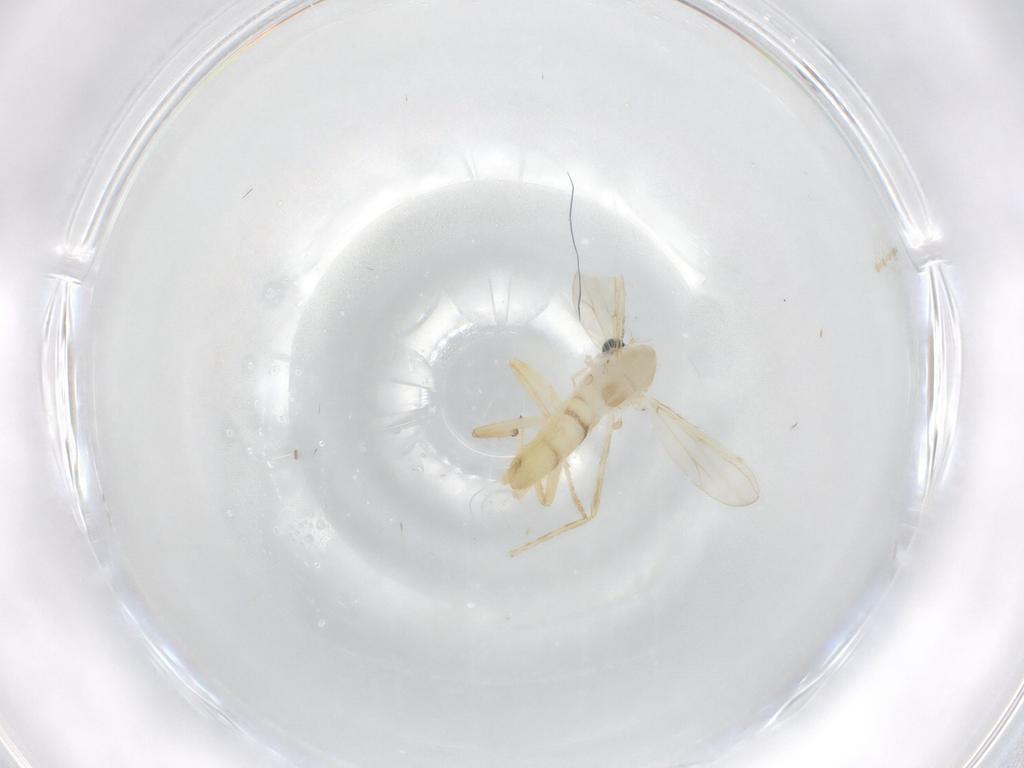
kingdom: Animalia
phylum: Arthropoda
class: Insecta
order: Diptera
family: Chironomidae
